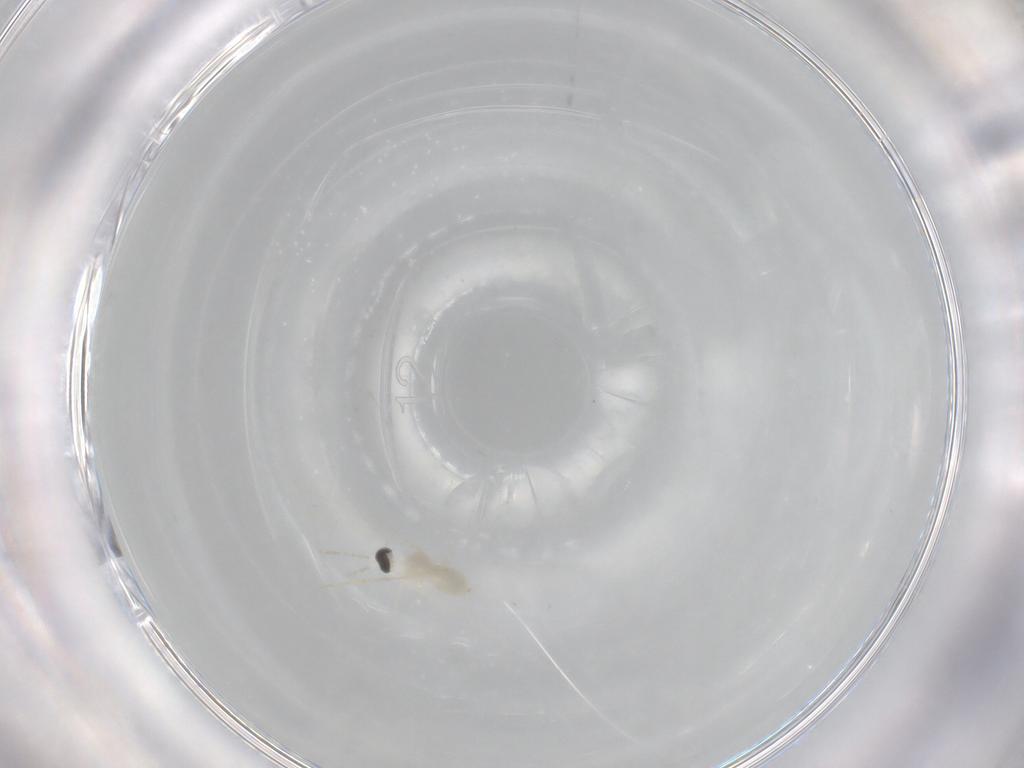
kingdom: Animalia
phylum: Arthropoda
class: Insecta
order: Diptera
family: Cecidomyiidae
